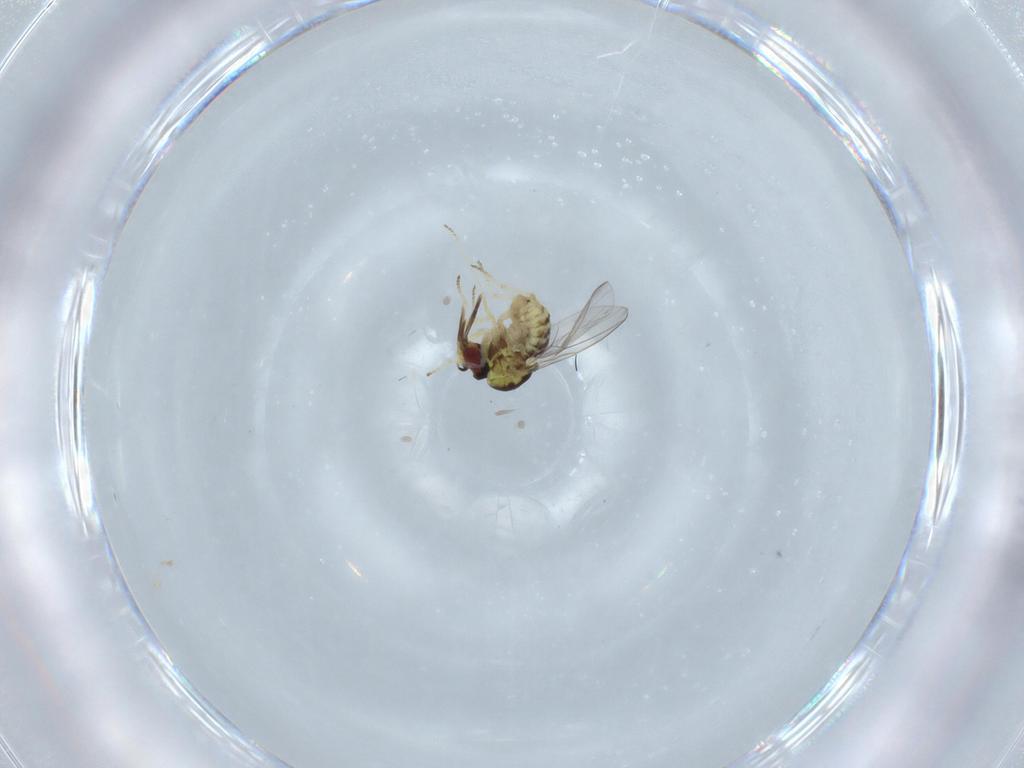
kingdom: Animalia
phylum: Arthropoda
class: Insecta
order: Diptera
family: Bombyliidae
